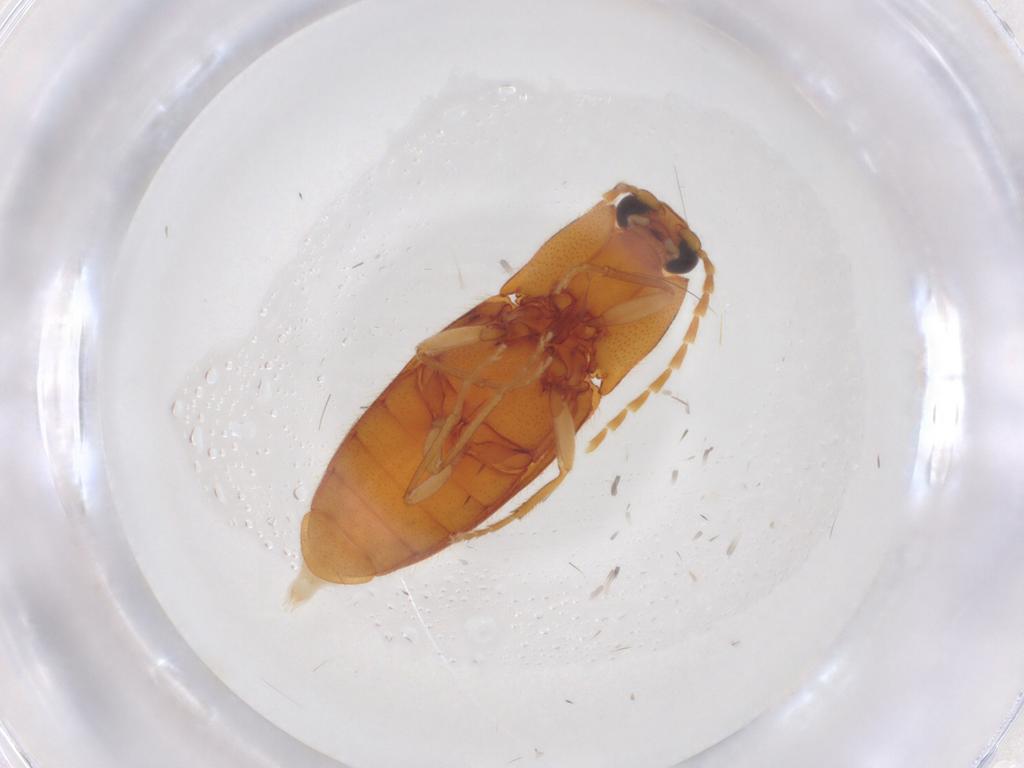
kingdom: Animalia
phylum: Arthropoda
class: Insecta
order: Coleoptera
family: Elateridae
